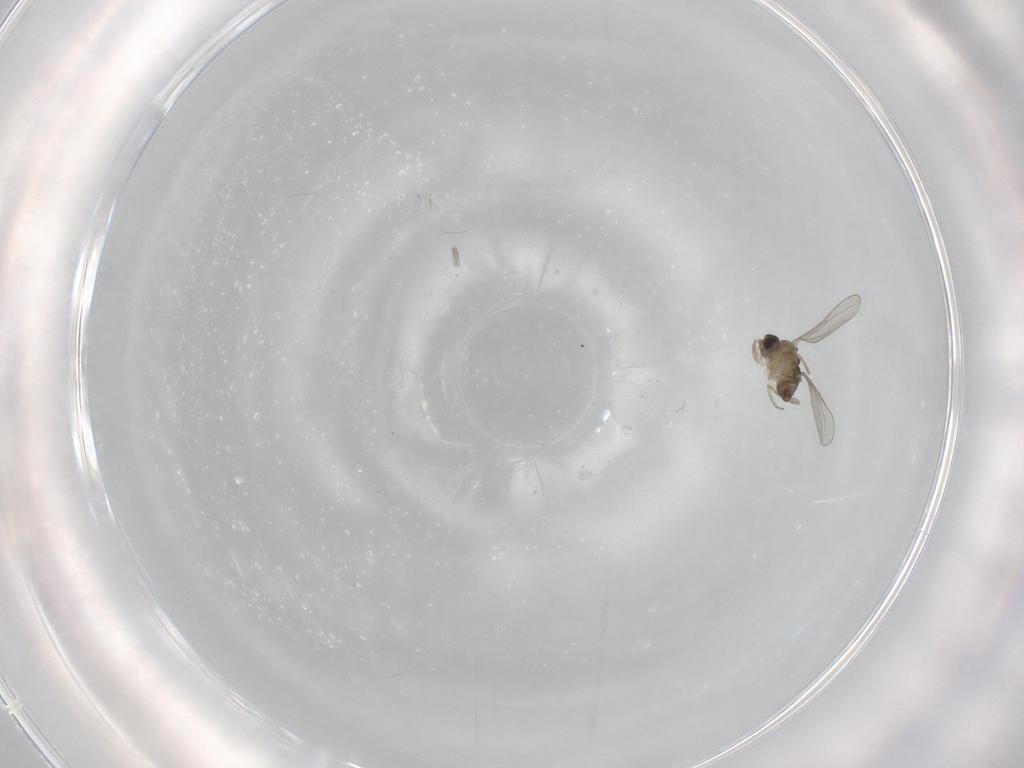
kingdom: Animalia
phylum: Arthropoda
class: Insecta
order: Diptera
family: Cecidomyiidae
